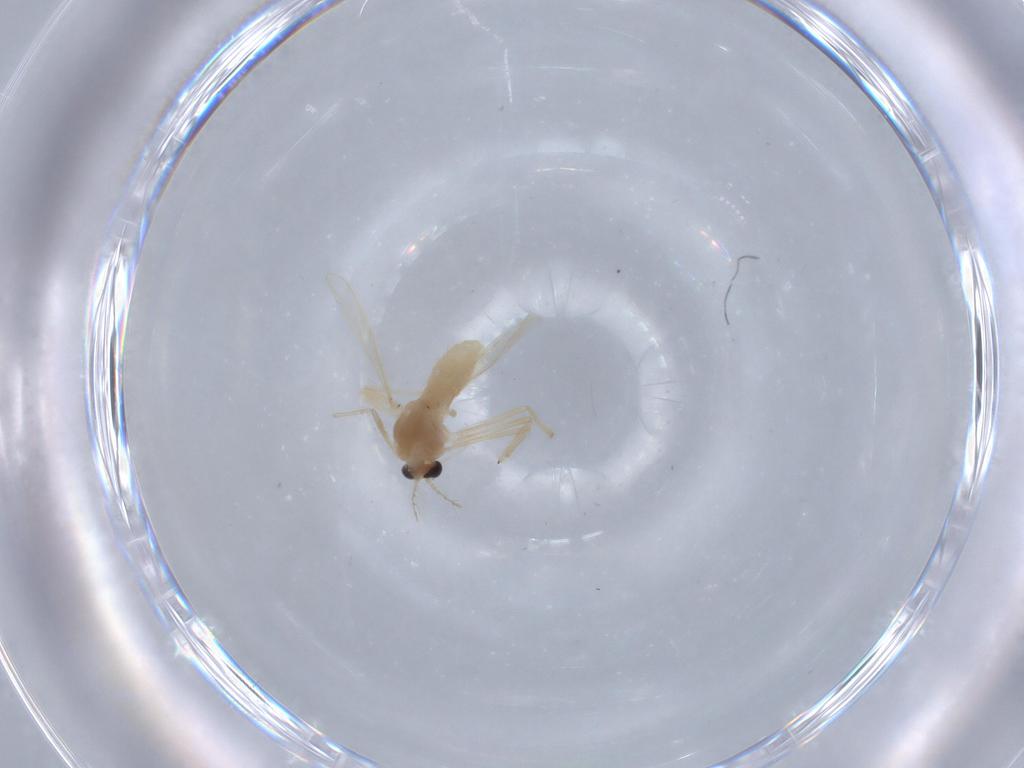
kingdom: Animalia
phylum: Arthropoda
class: Insecta
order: Diptera
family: Chironomidae
